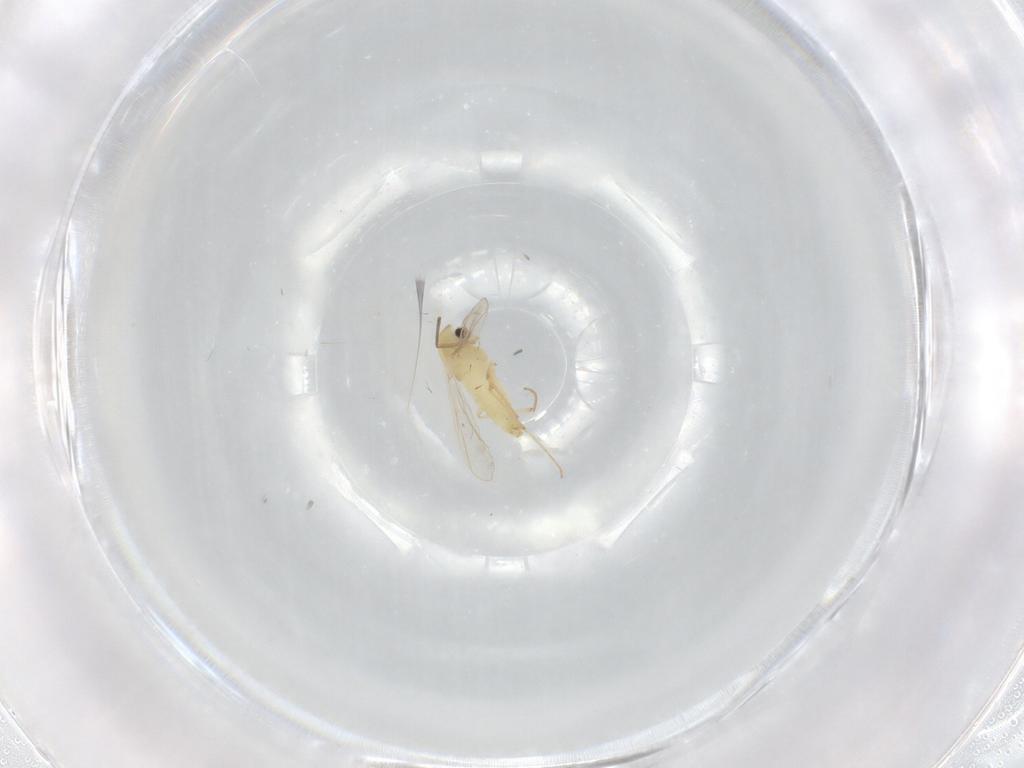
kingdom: Animalia
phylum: Arthropoda
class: Insecta
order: Diptera
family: Chironomidae
